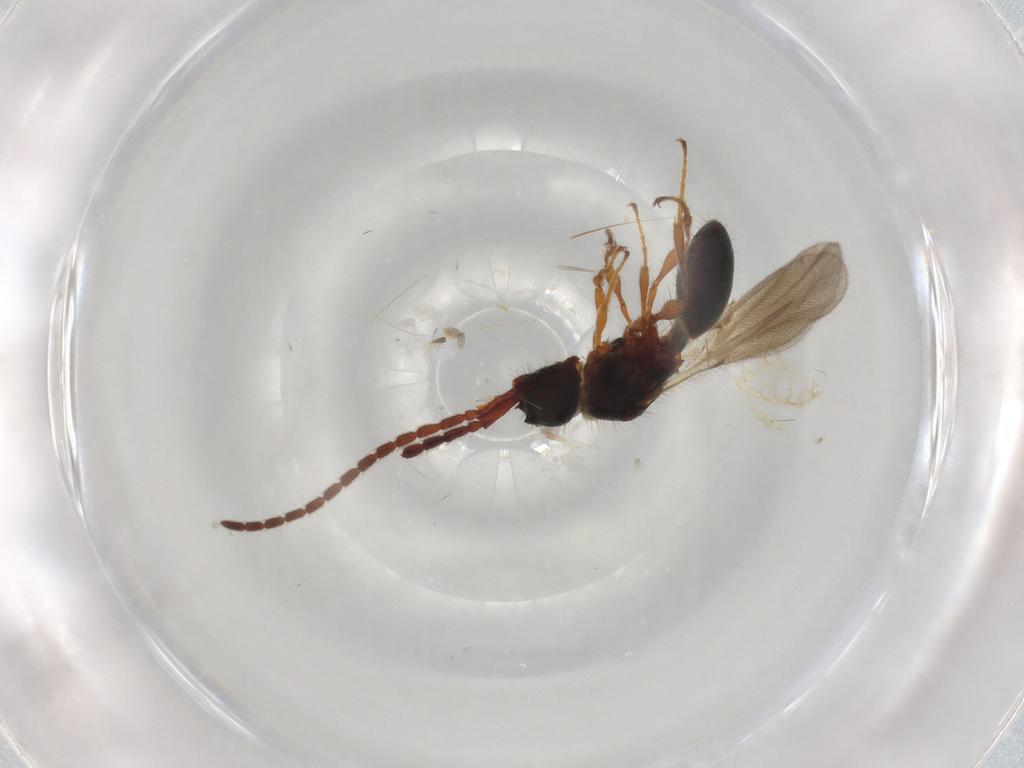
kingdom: Animalia
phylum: Arthropoda
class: Insecta
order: Hymenoptera
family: Diapriidae
